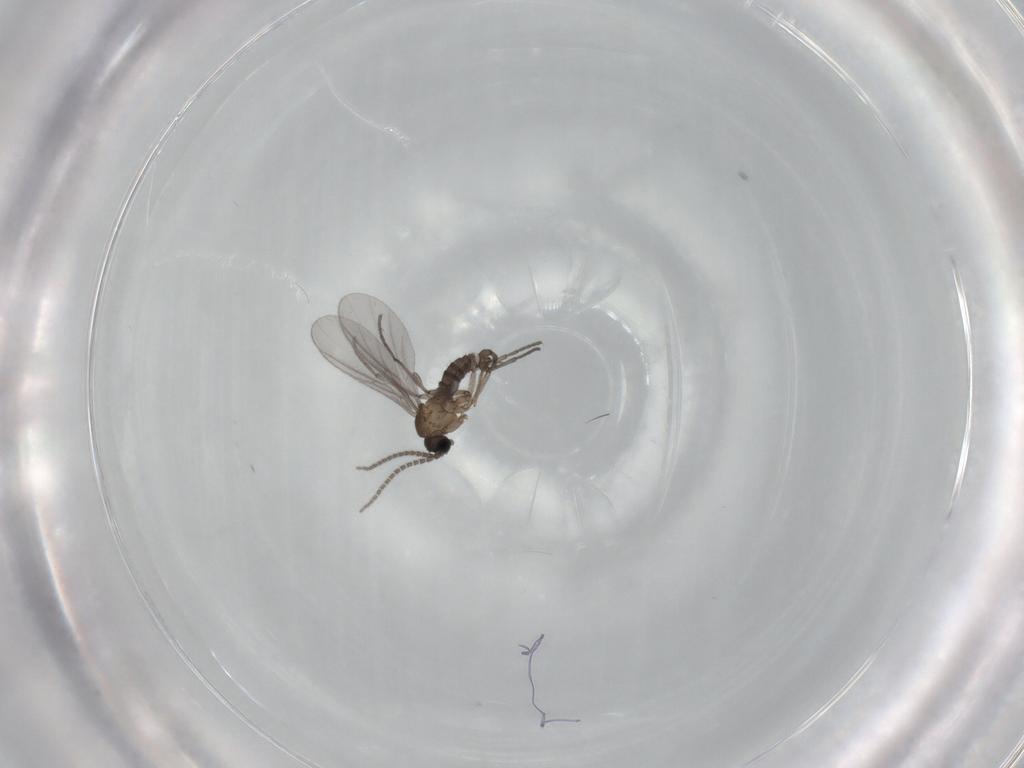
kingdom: Animalia
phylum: Arthropoda
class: Insecta
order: Diptera
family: Sciaridae
